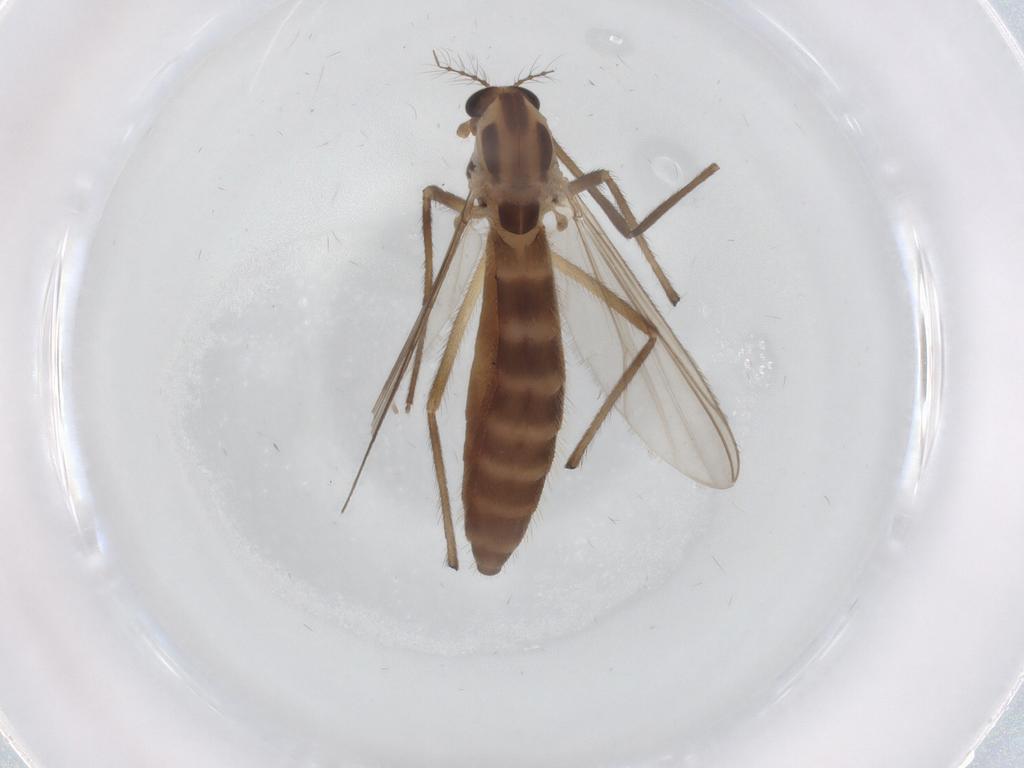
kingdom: Animalia
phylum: Arthropoda
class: Insecta
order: Diptera
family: Chironomidae
